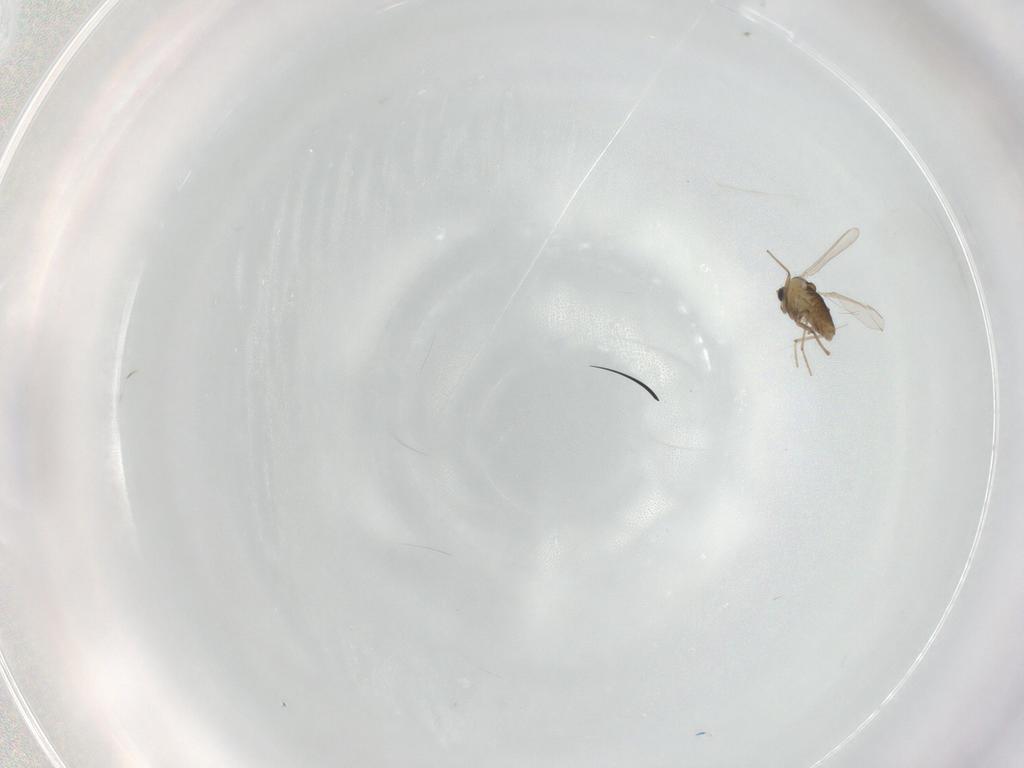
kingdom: Animalia
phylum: Arthropoda
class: Insecta
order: Diptera
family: Chironomidae
